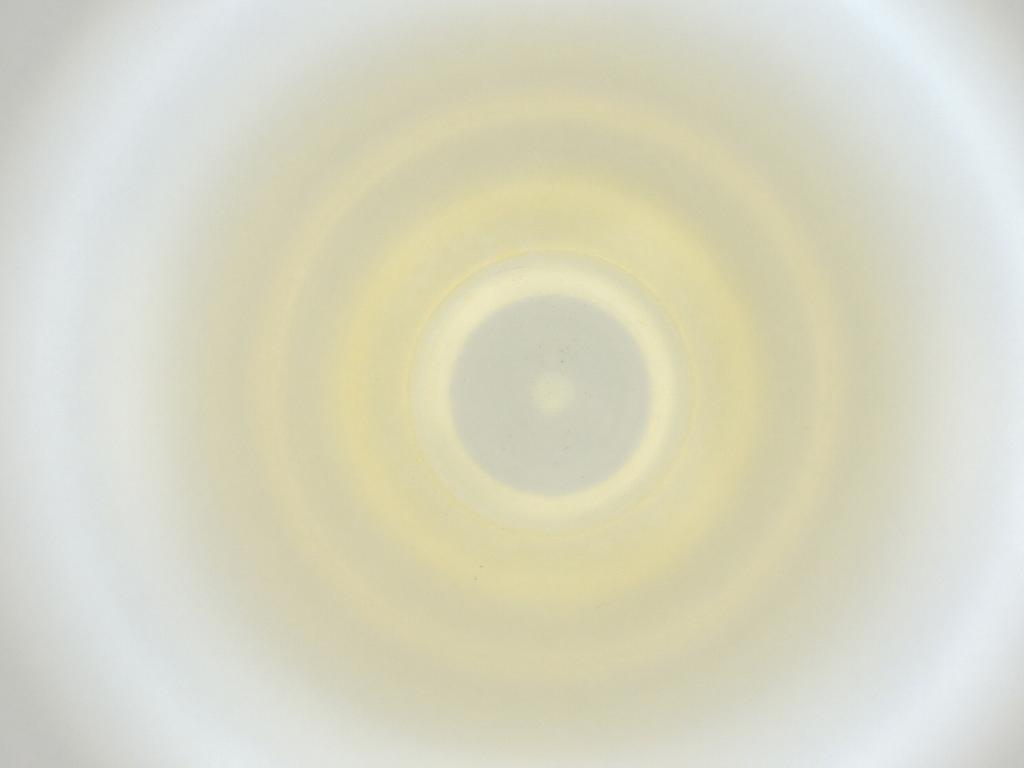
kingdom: Animalia
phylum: Arthropoda
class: Insecta
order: Diptera
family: Cecidomyiidae
